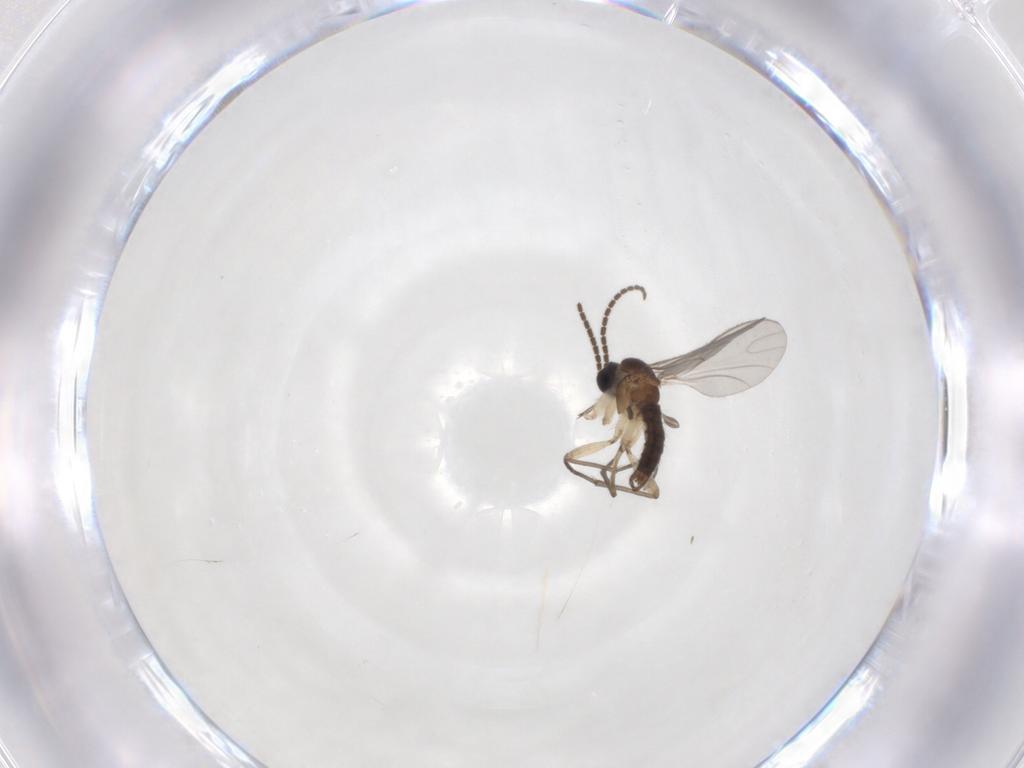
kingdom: Animalia
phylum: Arthropoda
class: Insecta
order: Diptera
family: Sciaridae
